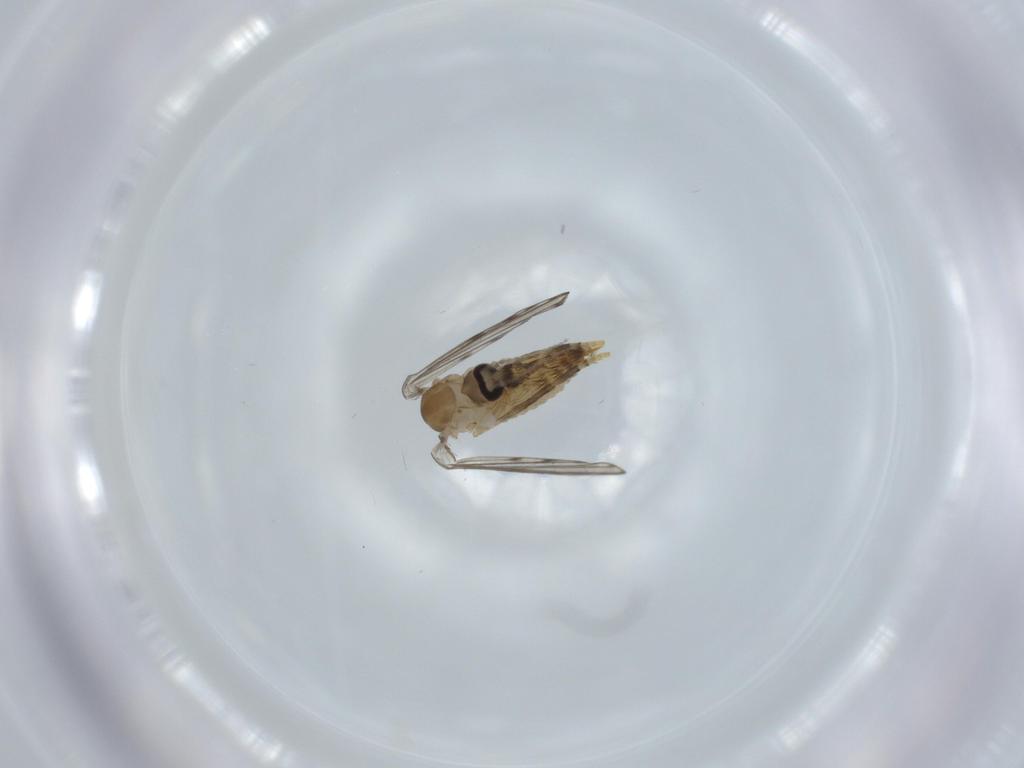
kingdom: Animalia
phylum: Arthropoda
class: Insecta
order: Diptera
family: Psychodidae
